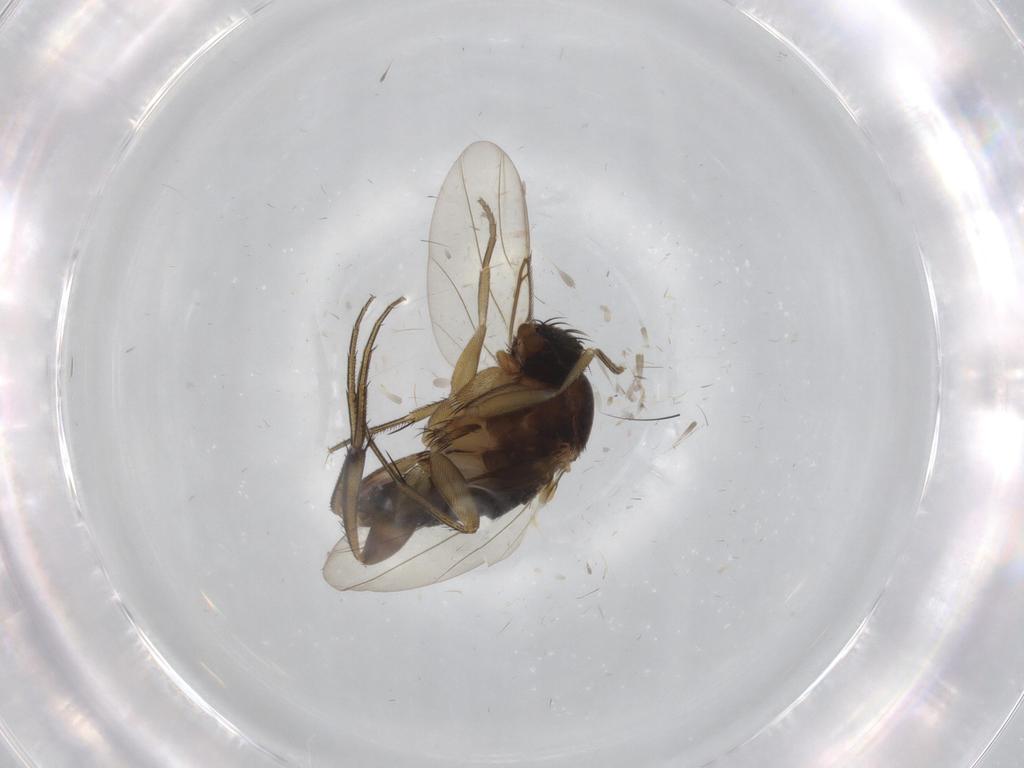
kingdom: Animalia
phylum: Arthropoda
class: Insecta
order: Diptera
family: Phoridae
